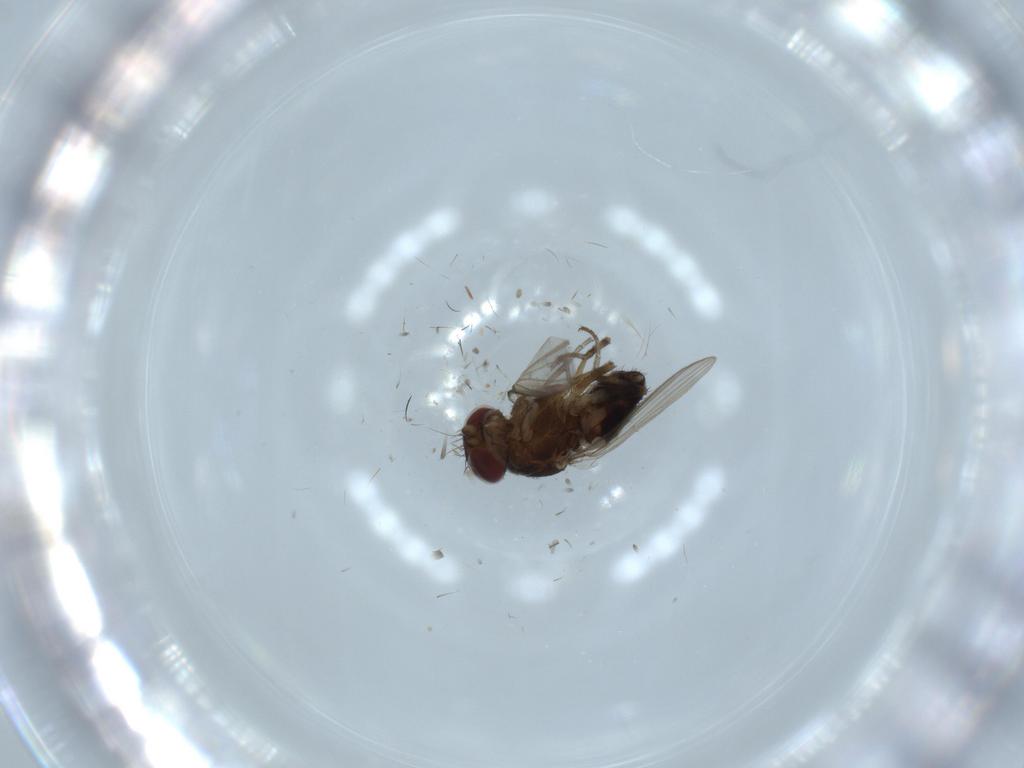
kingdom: Animalia
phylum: Arthropoda
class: Insecta
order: Diptera
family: Heleomyzidae
